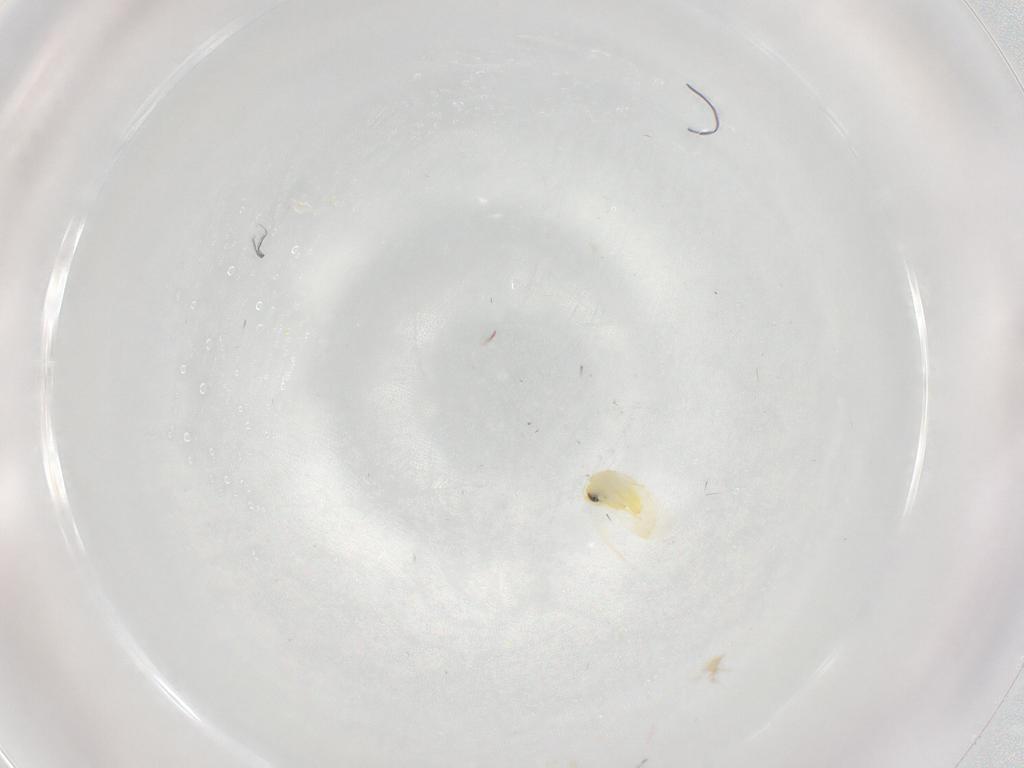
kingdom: Animalia
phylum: Arthropoda
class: Insecta
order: Hemiptera
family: Aleyrodidae
